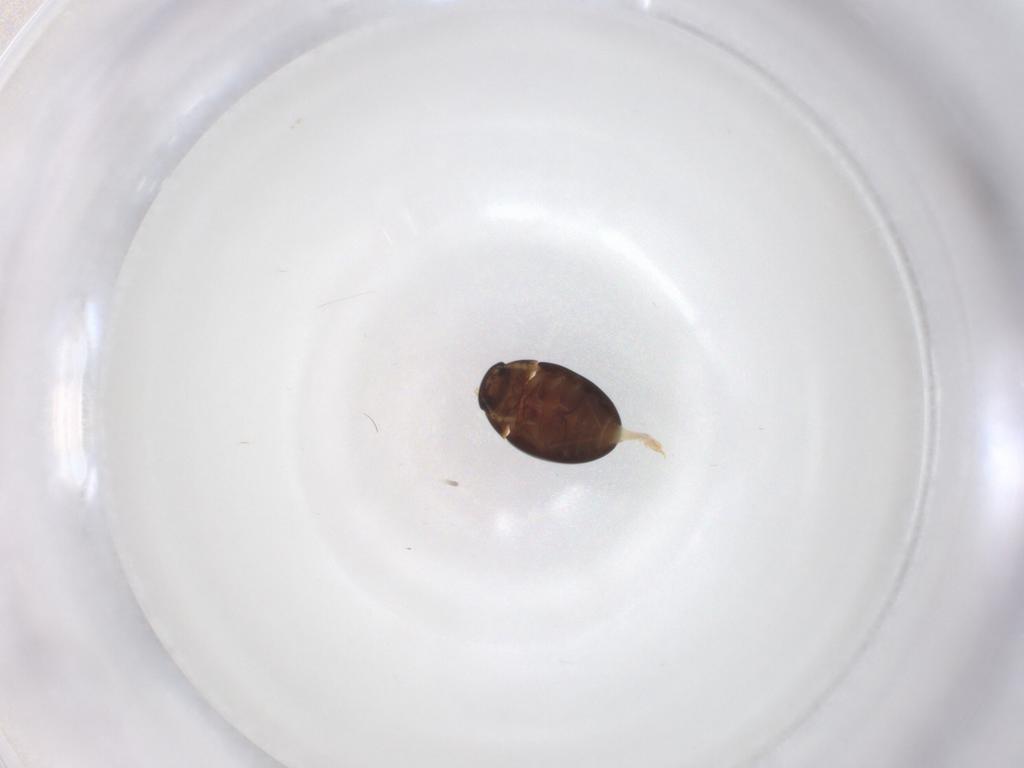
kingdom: Animalia
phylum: Arthropoda
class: Insecta
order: Coleoptera
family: Phalacridae
